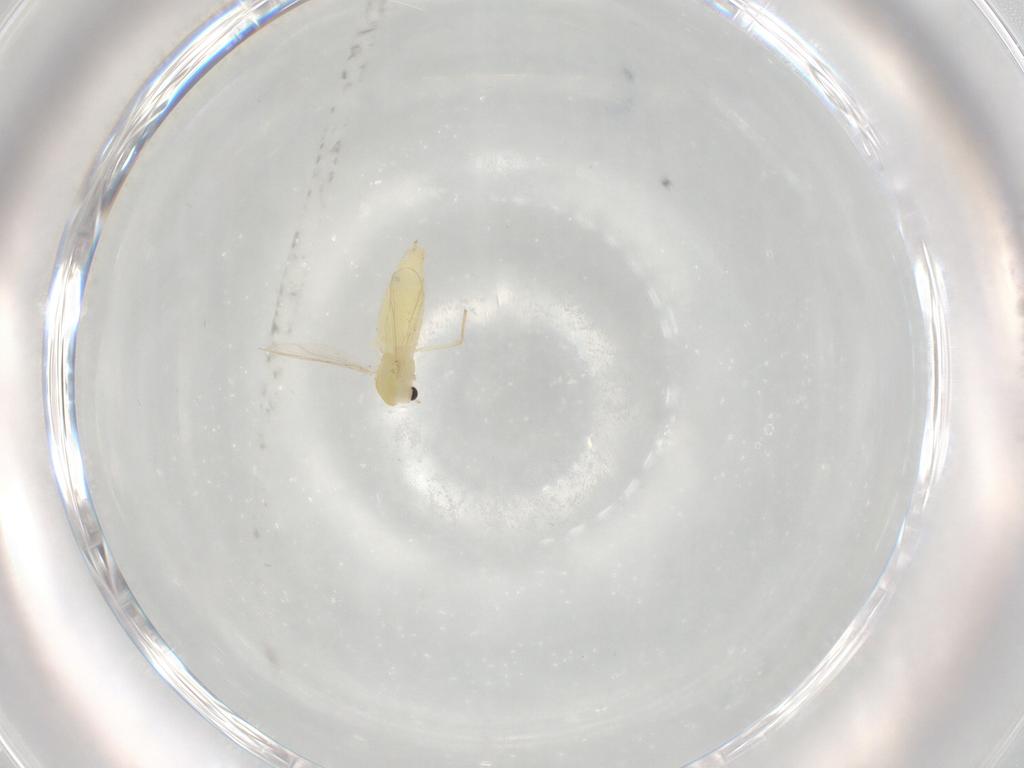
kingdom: Animalia
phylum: Arthropoda
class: Insecta
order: Diptera
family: Chironomidae
